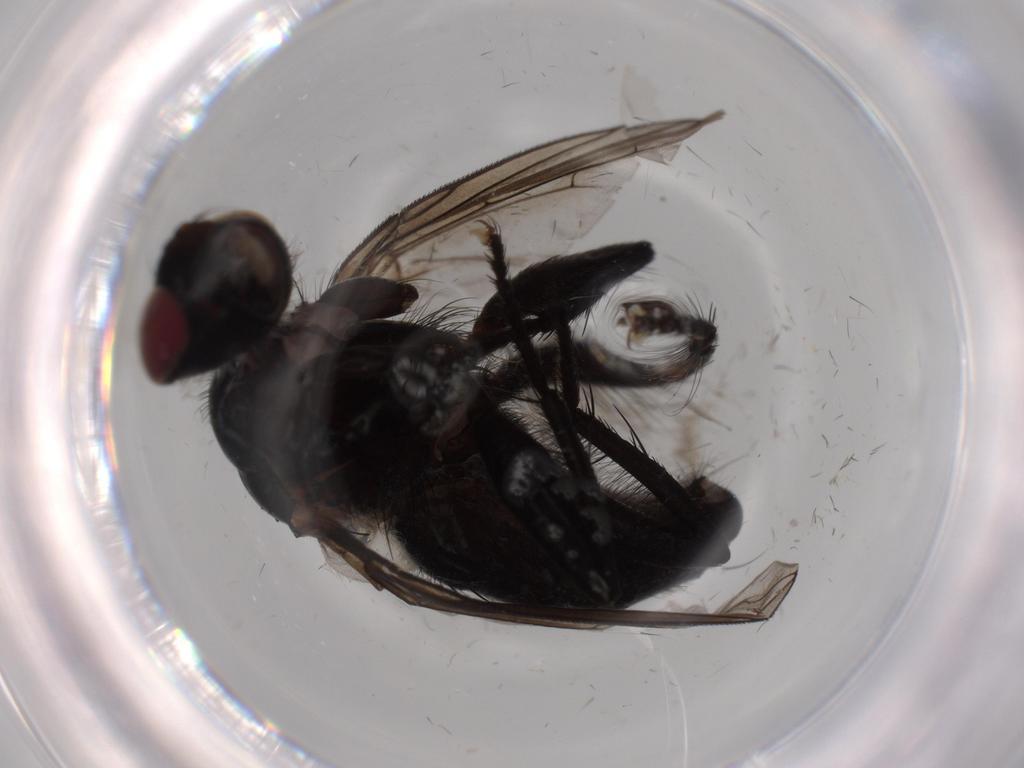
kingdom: Animalia
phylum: Arthropoda
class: Insecta
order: Diptera
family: Sarcophagidae
